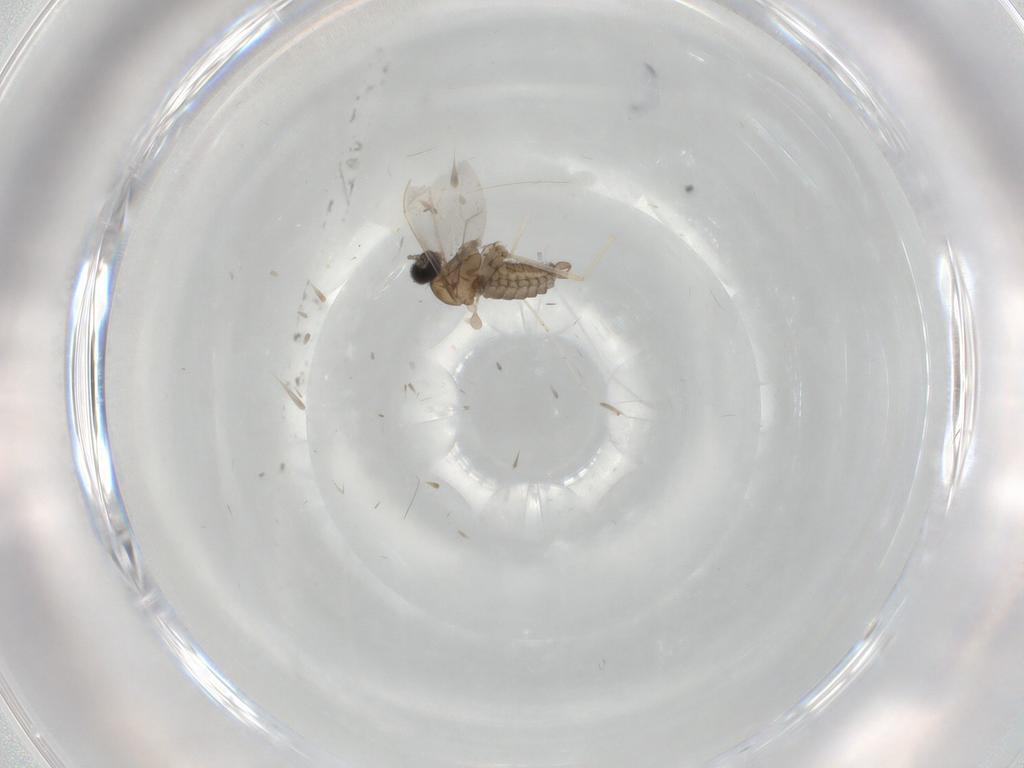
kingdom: Animalia
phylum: Arthropoda
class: Insecta
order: Diptera
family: Cecidomyiidae
